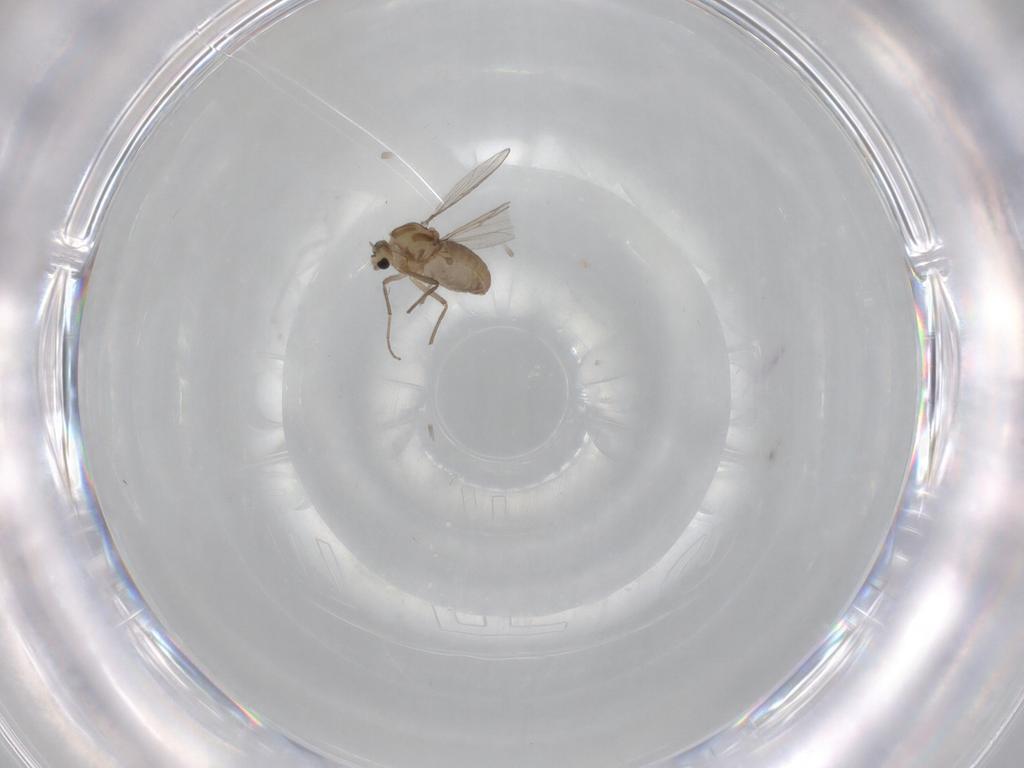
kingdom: Animalia
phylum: Arthropoda
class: Insecta
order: Diptera
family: Chironomidae
